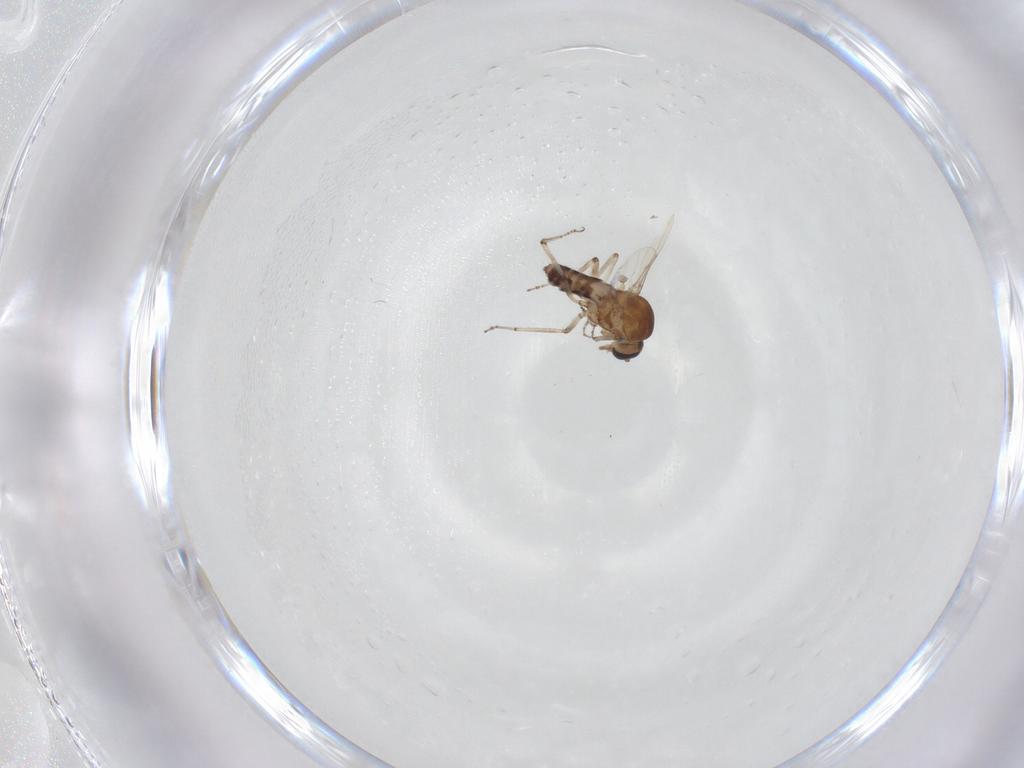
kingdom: Animalia
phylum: Arthropoda
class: Insecta
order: Diptera
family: Ceratopogonidae
